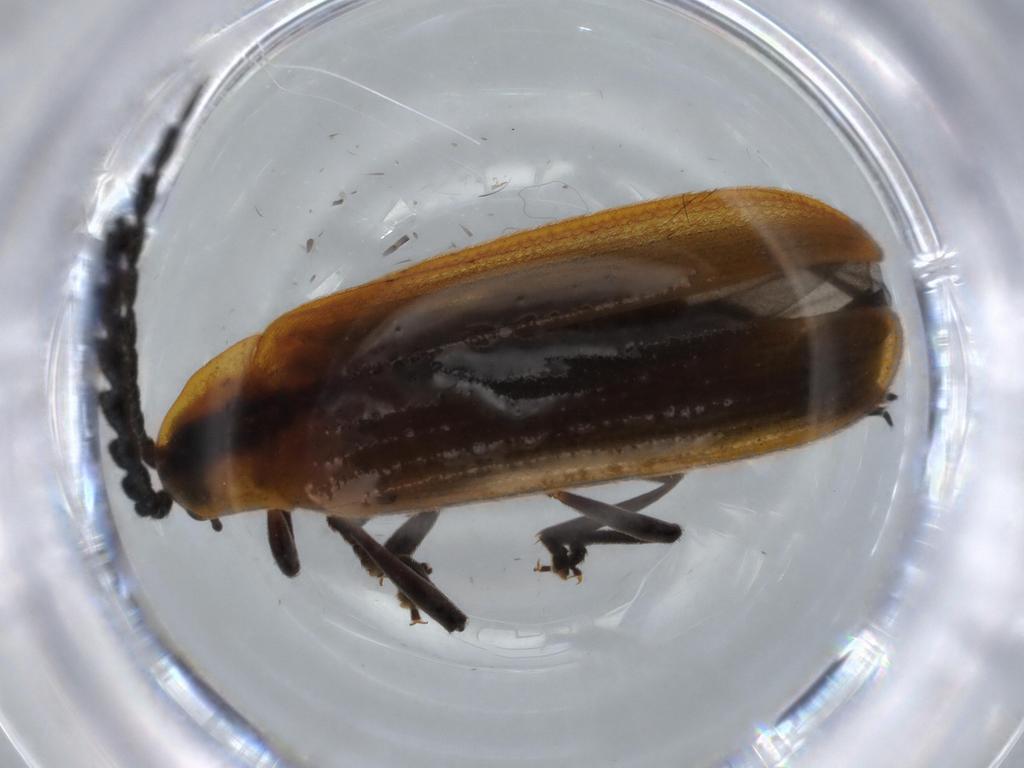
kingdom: Animalia
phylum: Arthropoda
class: Insecta
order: Coleoptera
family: Lycidae
